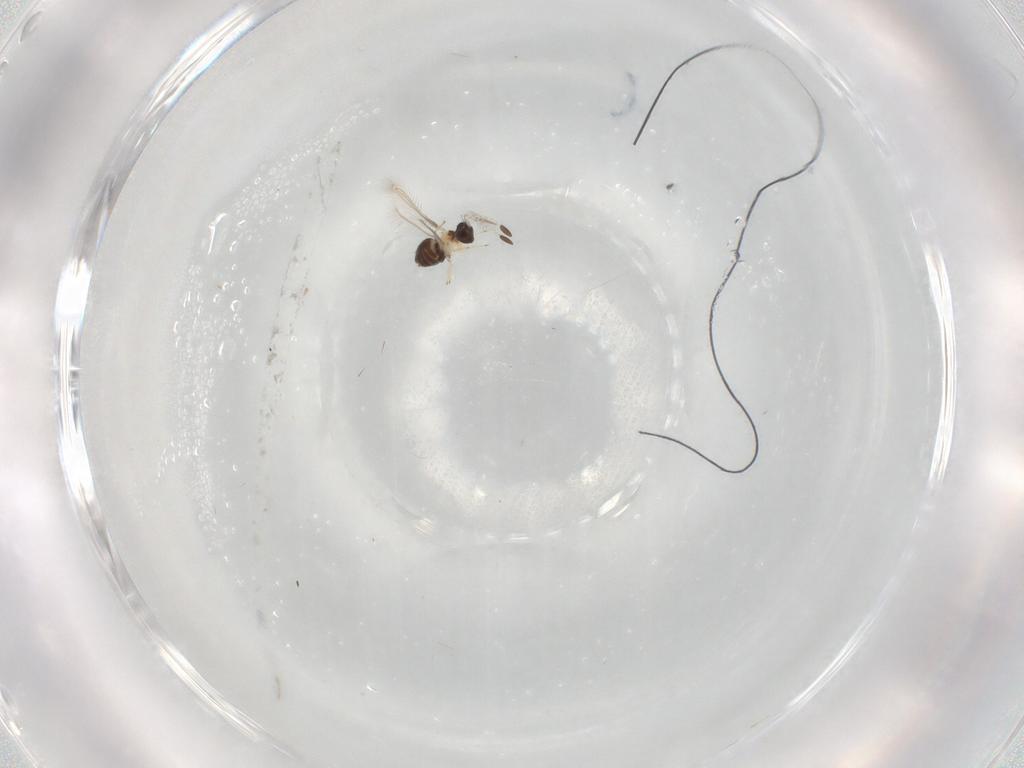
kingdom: Animalia
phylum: Arthropoda
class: Insecta
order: Hymenoptera
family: Mymaridae
